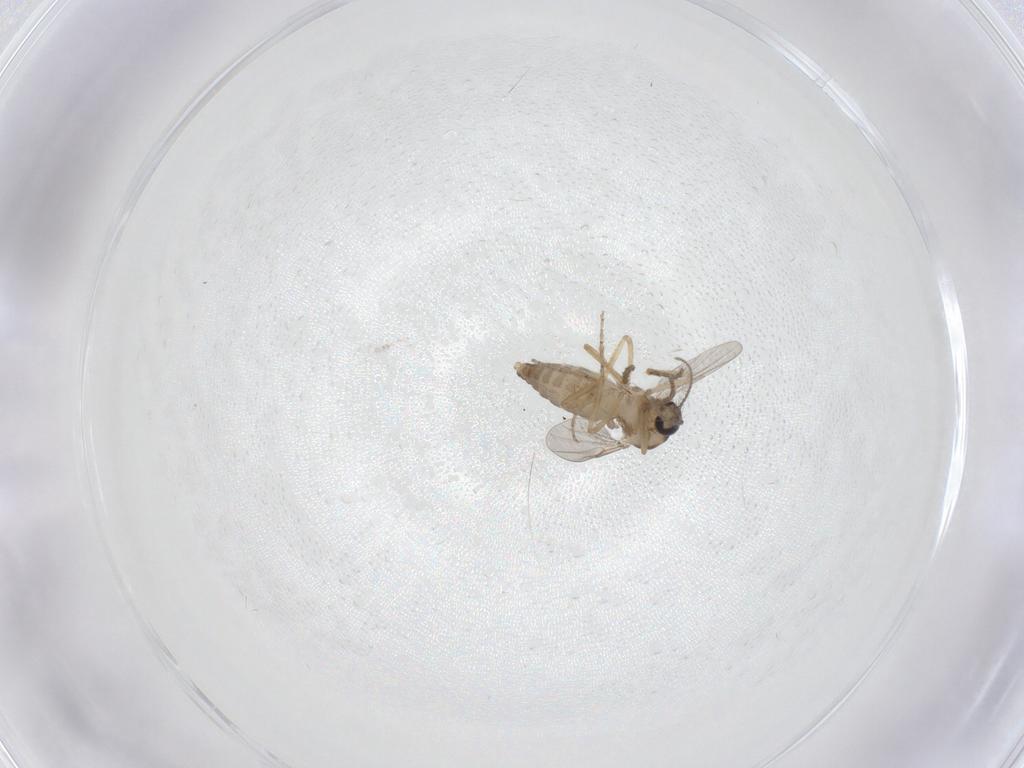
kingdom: Animalia
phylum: Arthropoda
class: Insecta
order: Diptera
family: Ceratopogonidae
